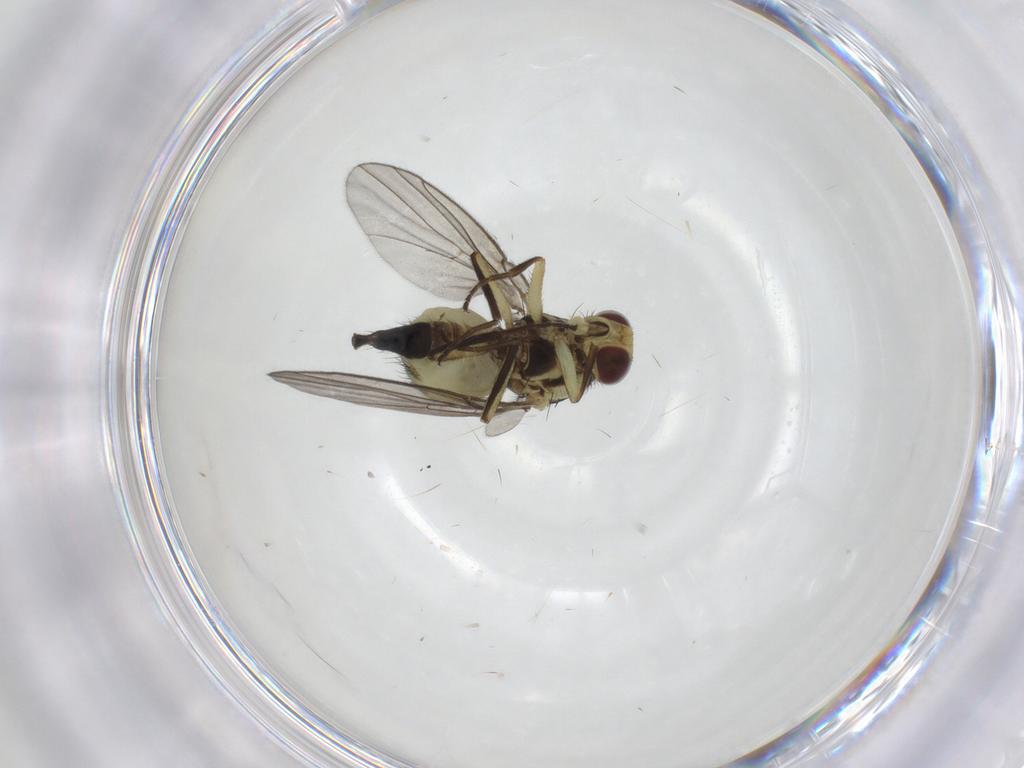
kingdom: Animalia
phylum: Arthropoda
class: Insecta
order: Diptera
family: Agromyzidae
